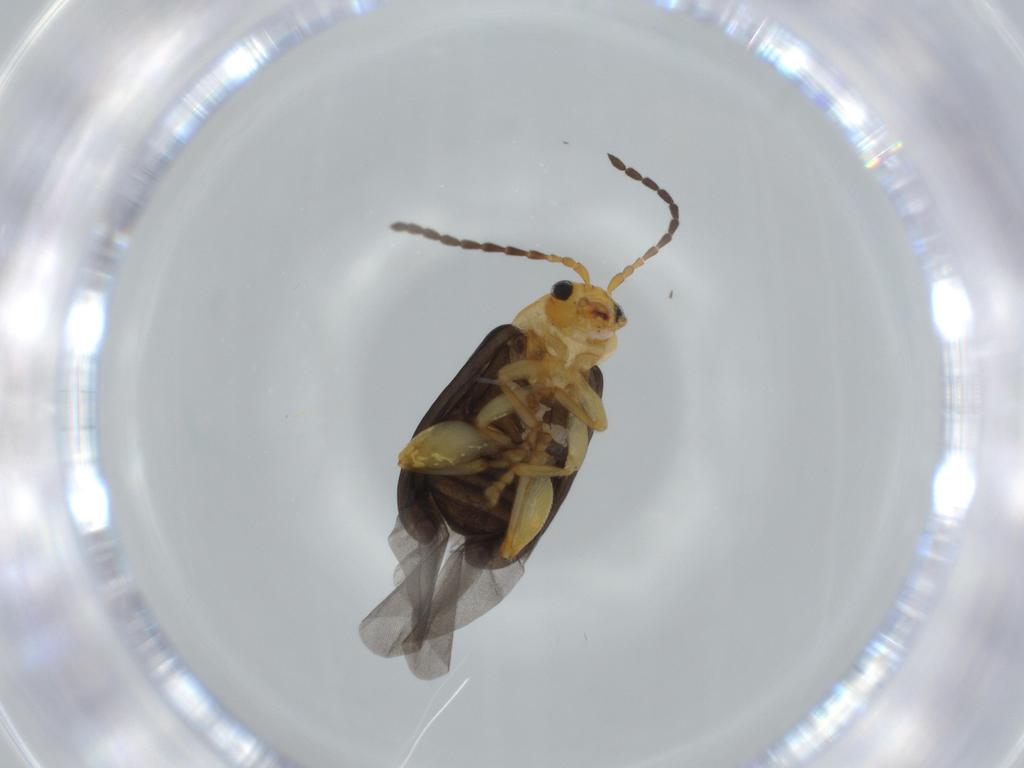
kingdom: Animalia
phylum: Arthropoda
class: Insecta
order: Coleoptera
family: Chrysomelidae
